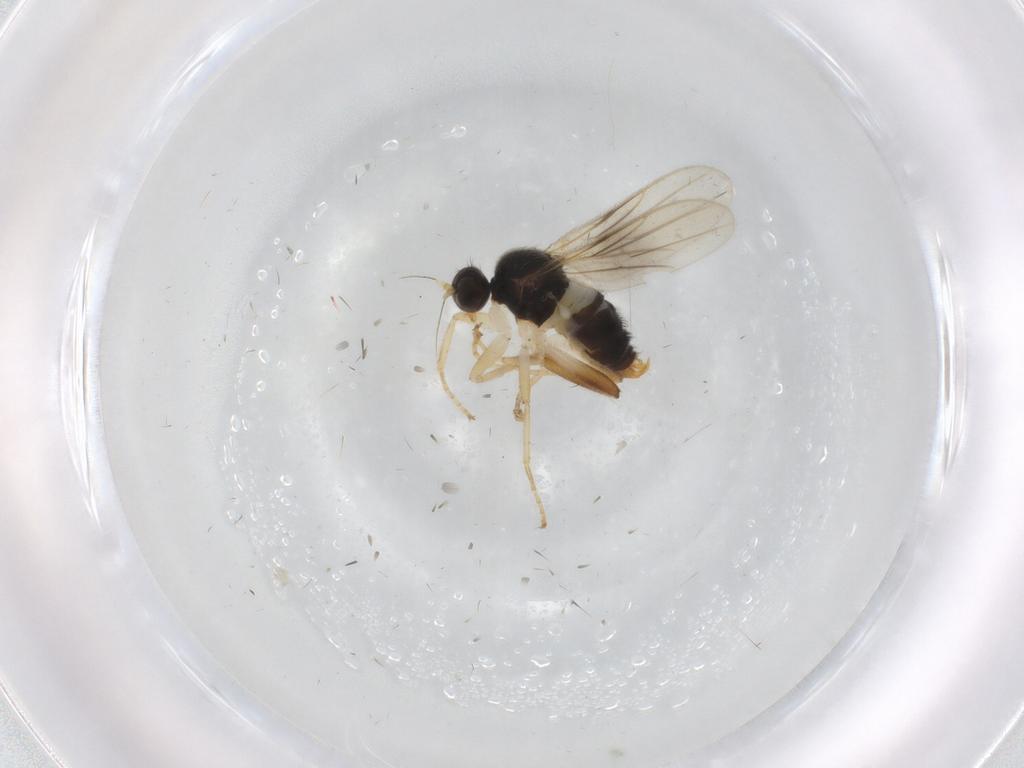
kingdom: Animalia
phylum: Arthropoda
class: Insecta
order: Diptera
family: Hybotidae
